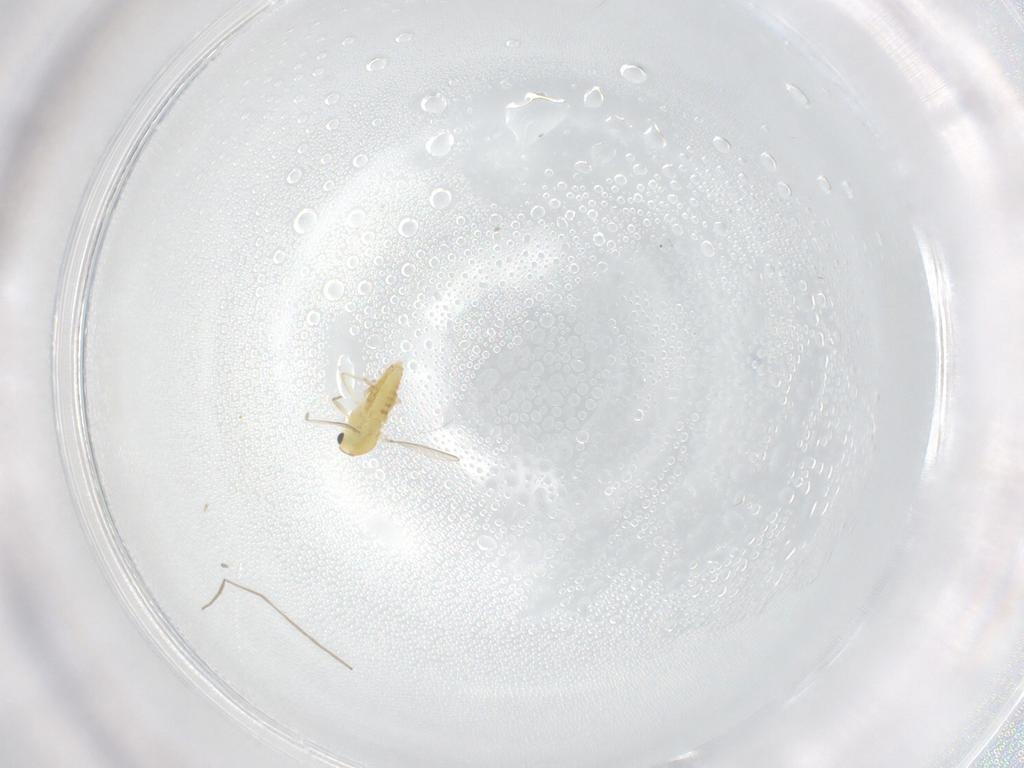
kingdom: Animalia
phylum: Arthropoda
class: Insecta
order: Diptera
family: Chironomidae
